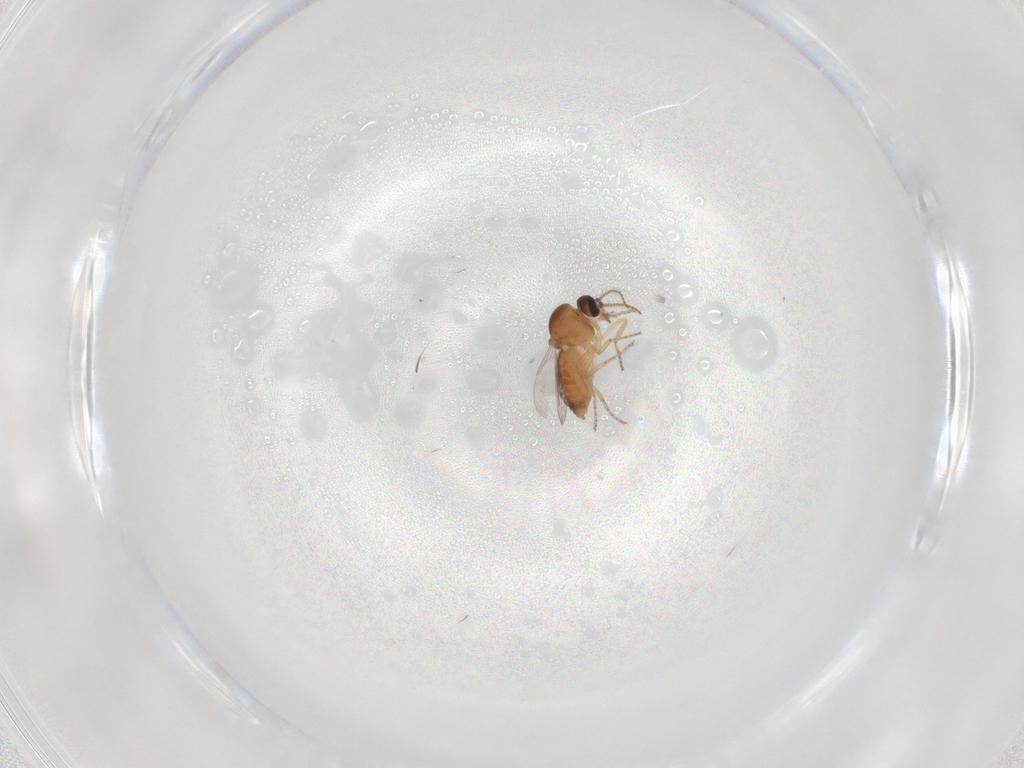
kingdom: Animalia
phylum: Arthropoda
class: Insecta
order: Diptera
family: Ceratopogonidae
